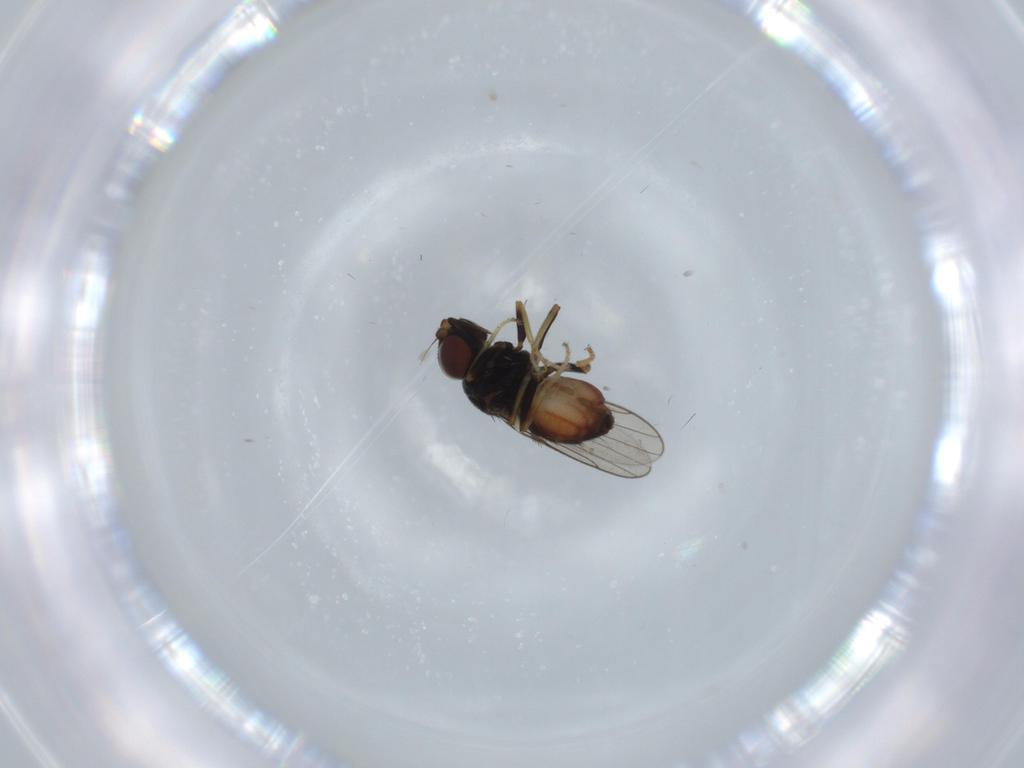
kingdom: Animalia
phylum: Arthropoda
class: Insecta
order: Diptera
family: Chloropidae
